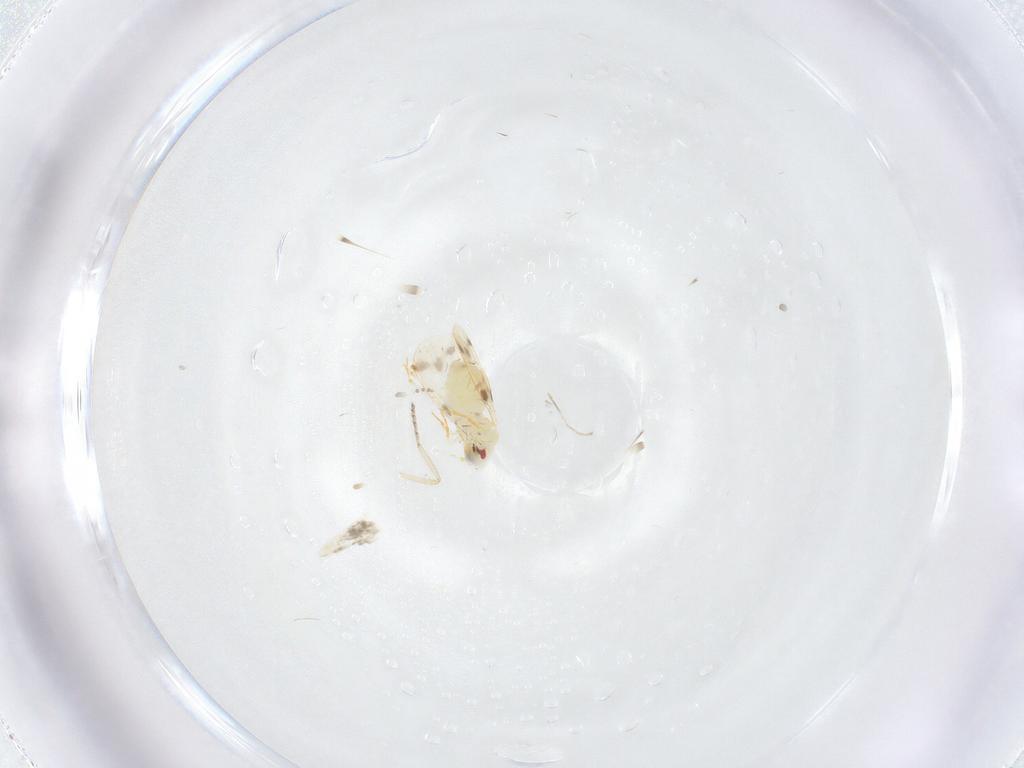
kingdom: Animalia
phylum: Arthropoda
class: Insecta
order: Hemiptera
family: Aleyrodidae
